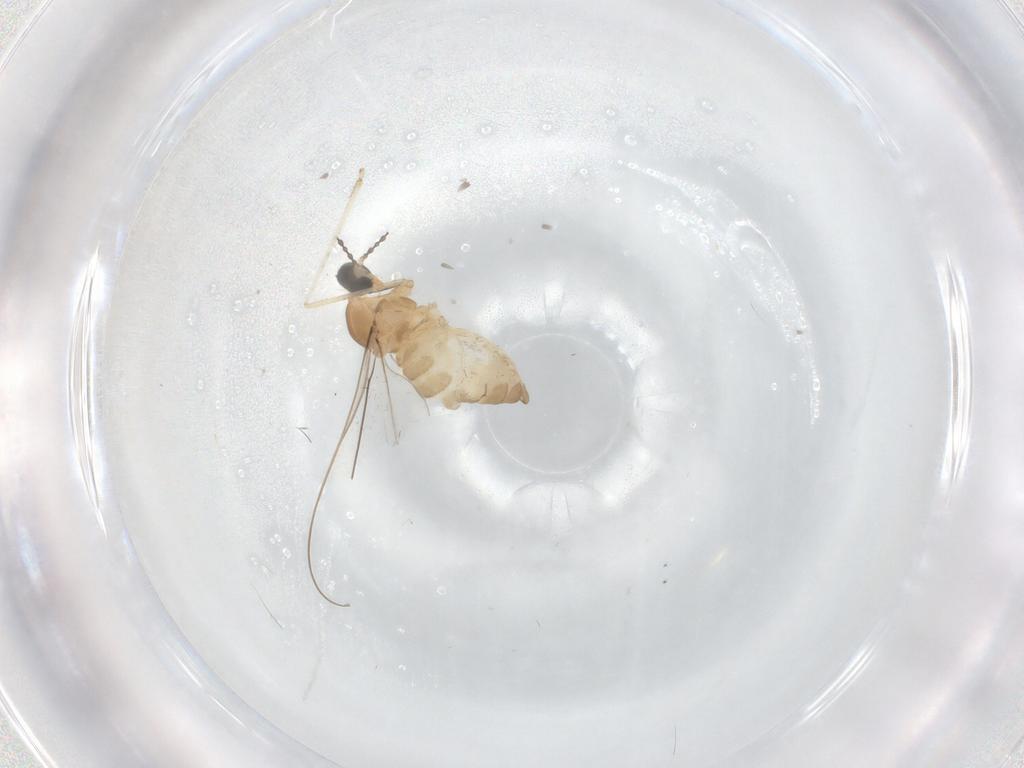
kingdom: Animalia
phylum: Arthropoda
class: Insecta
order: Diptera
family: Cecidomyiidae
